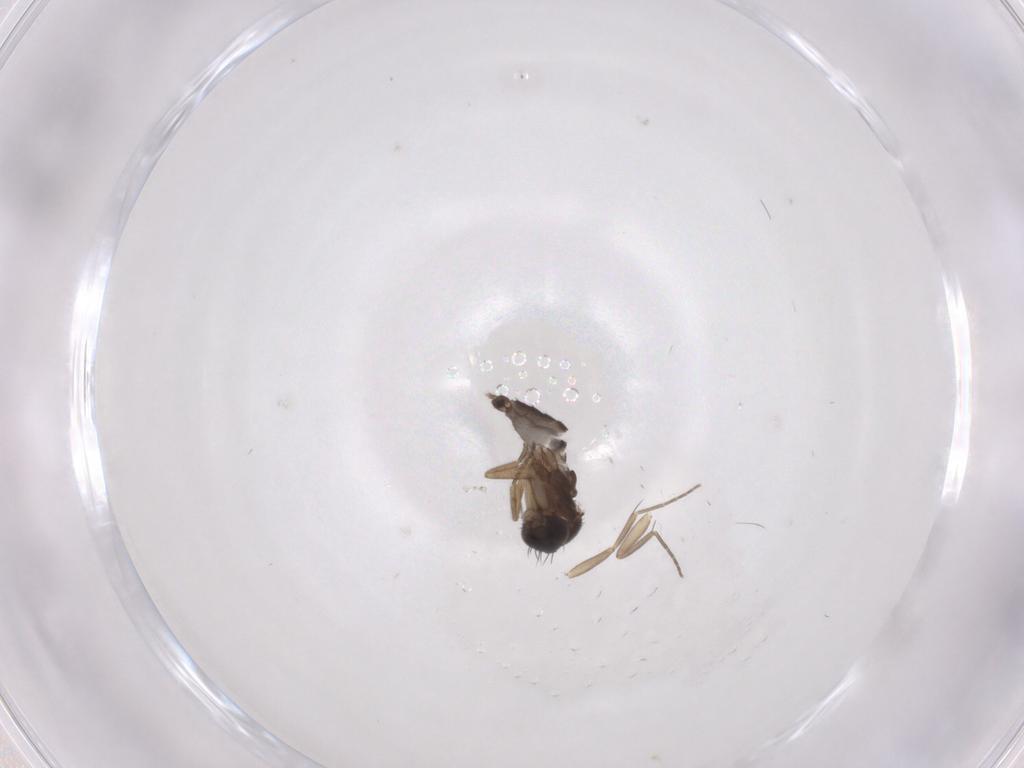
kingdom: Animalia
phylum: Arthropoda
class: Insecta
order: Diptera
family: Phoridae
